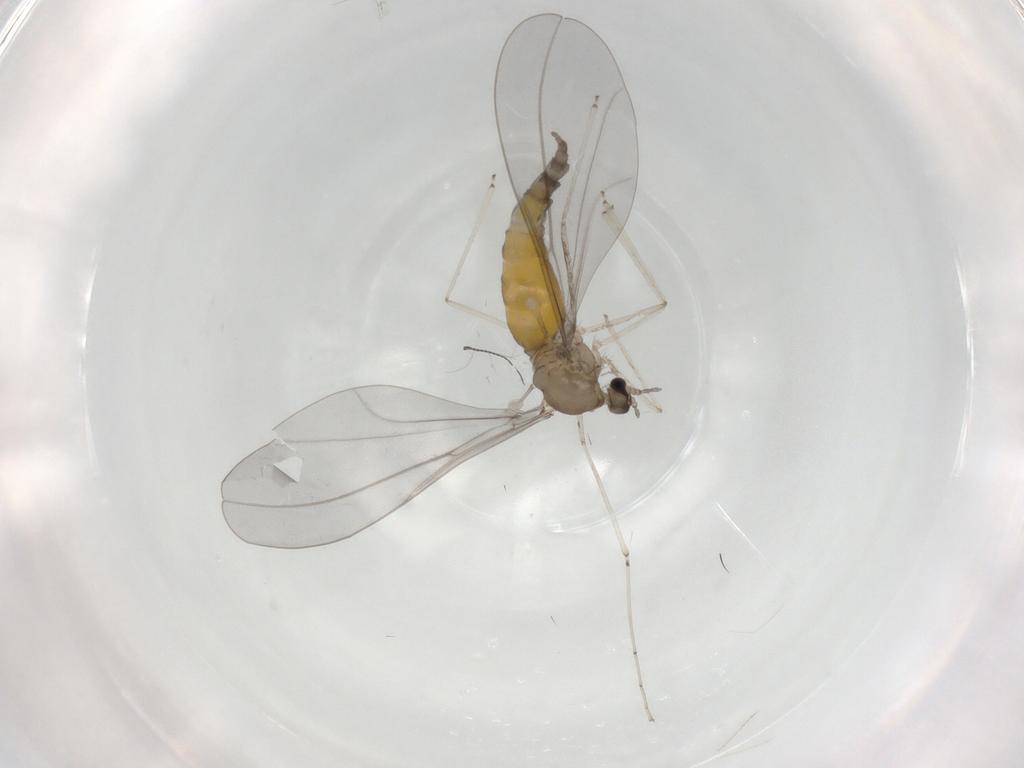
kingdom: Animalia
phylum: Arthropoda
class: Insecta
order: Diptera
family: Cecidomyiidae
